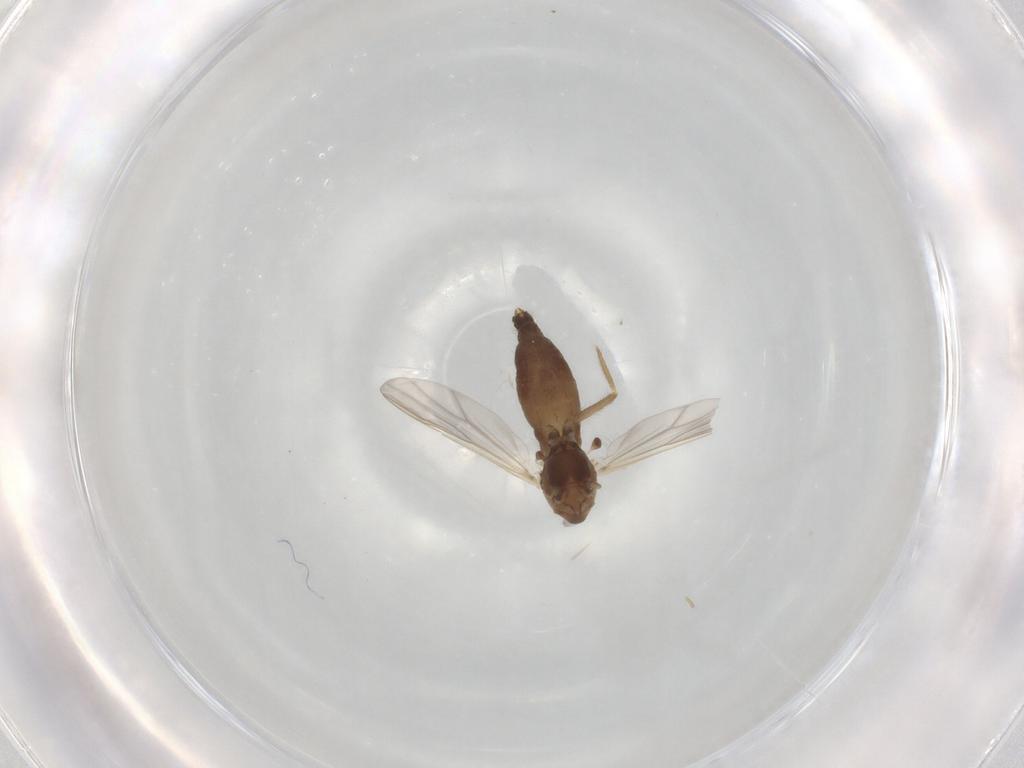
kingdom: Animalia
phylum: Arthropoda
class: Insecta
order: Diptera
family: Chironomidae
